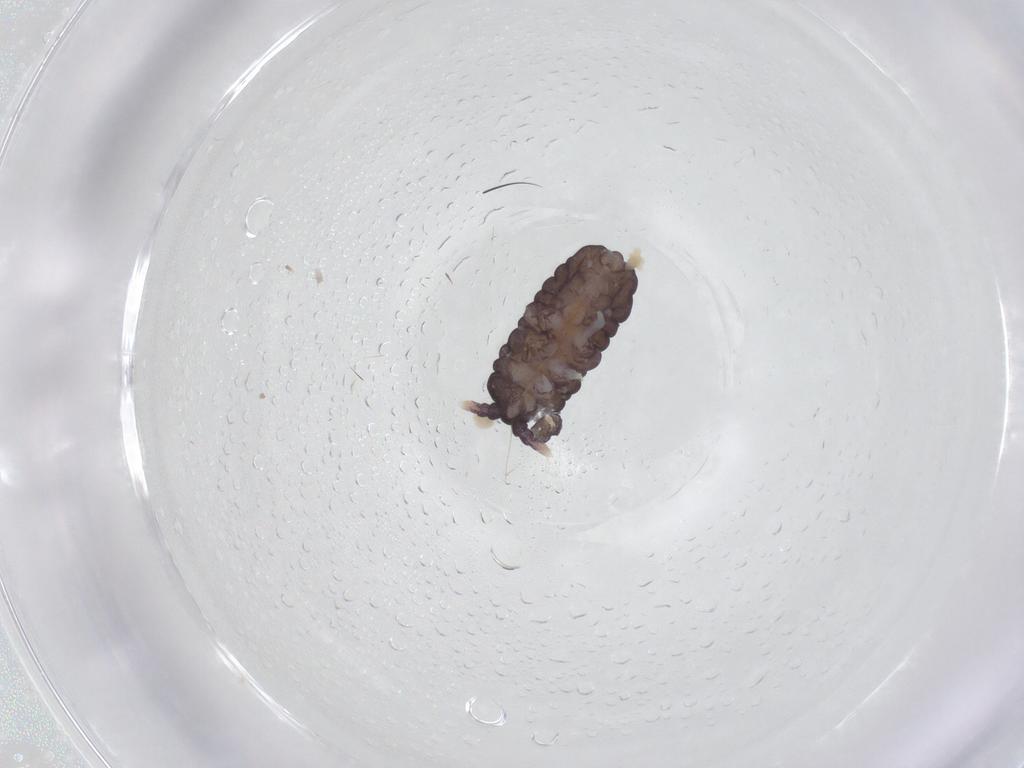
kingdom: Animalia
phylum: Arthropoda
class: Collembola
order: Poduromorpha
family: Neanuridae
